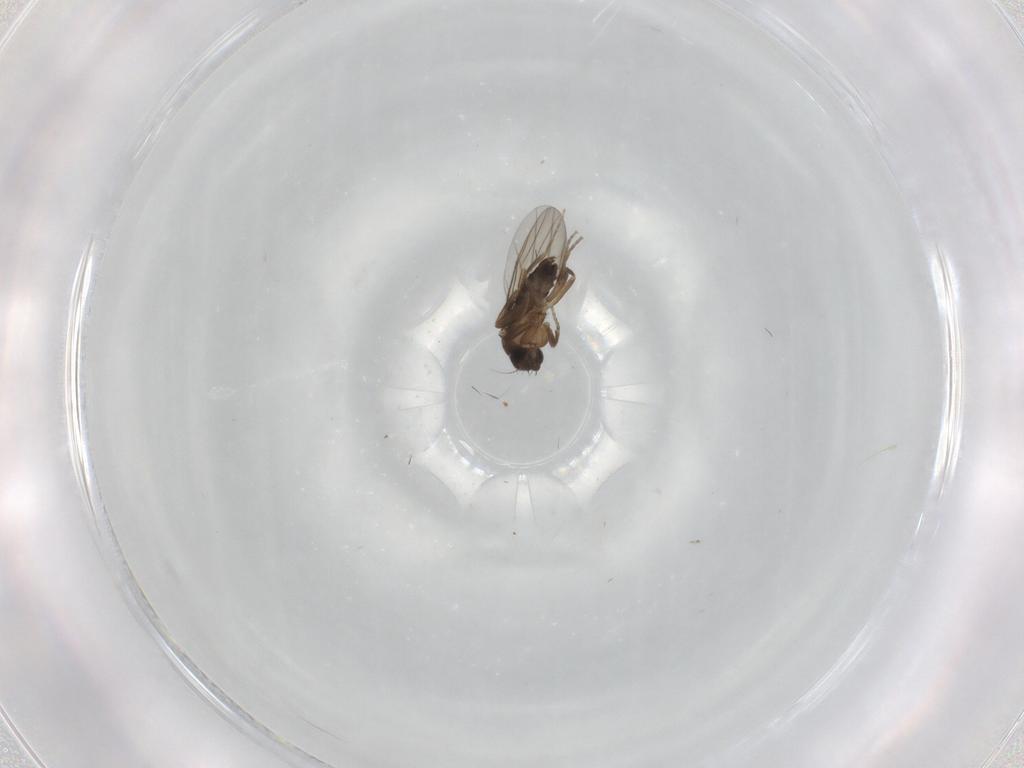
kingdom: Animalia
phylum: Arthropoda
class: Insecta
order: Diptera
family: Phoridae
